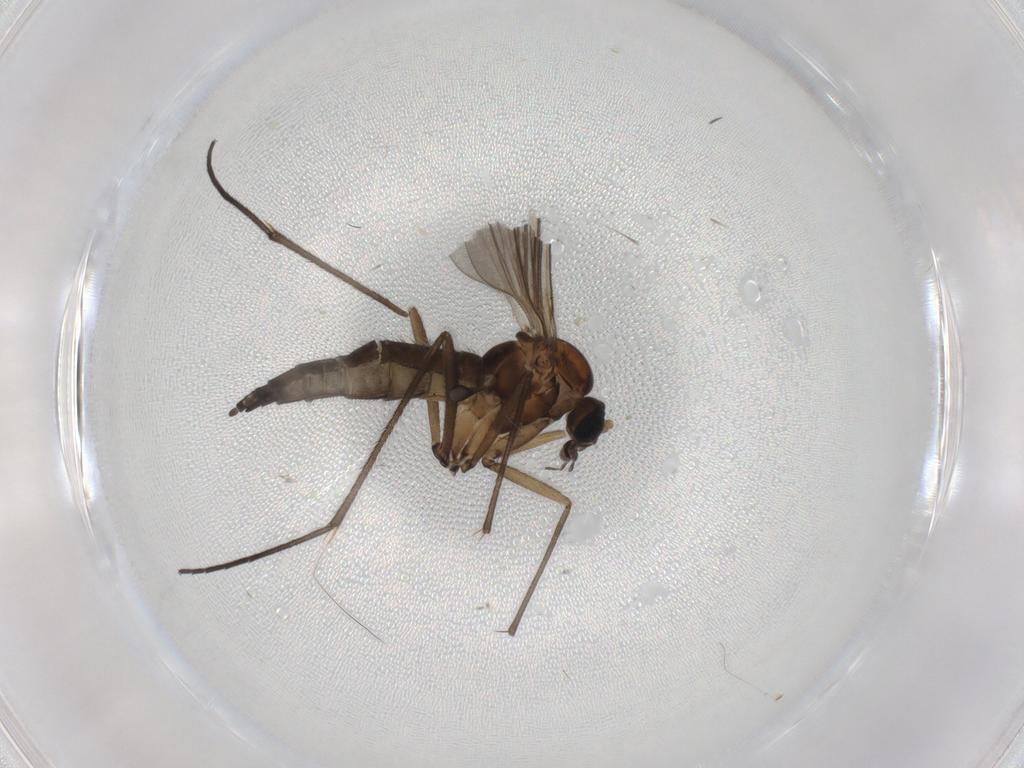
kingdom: Animalia
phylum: Arthropoda
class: Insecta
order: Diptera
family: Sciaridae
